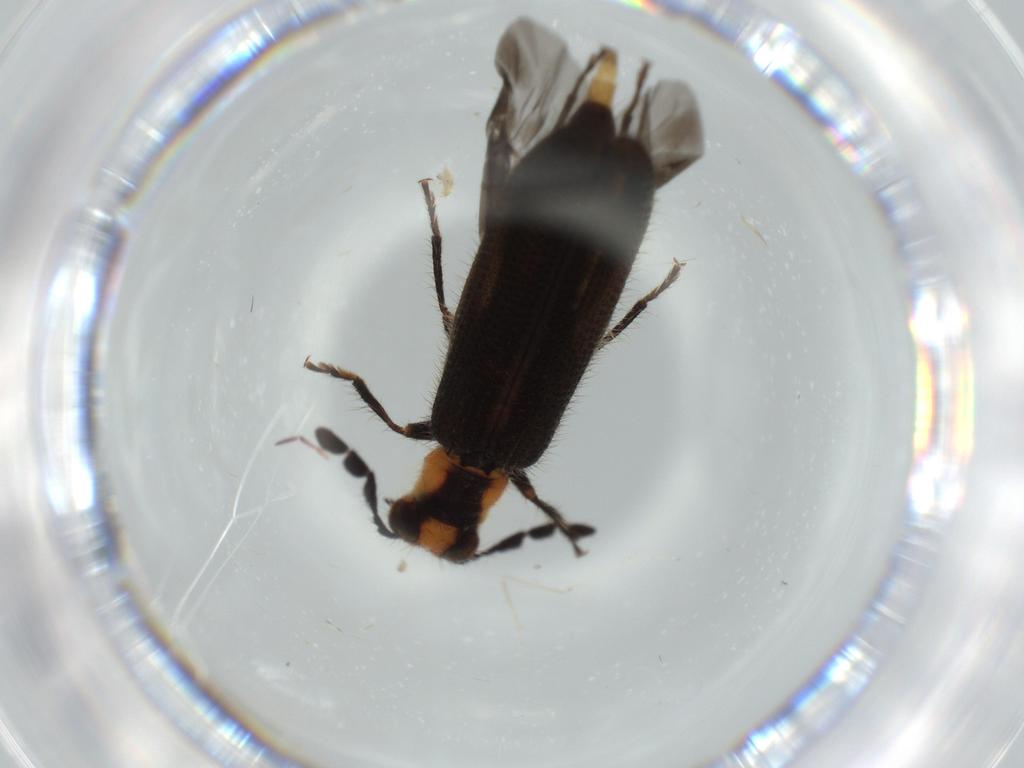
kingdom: Animalia
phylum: Arthropoda
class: Insecta
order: Coleoptera
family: Cleridae
